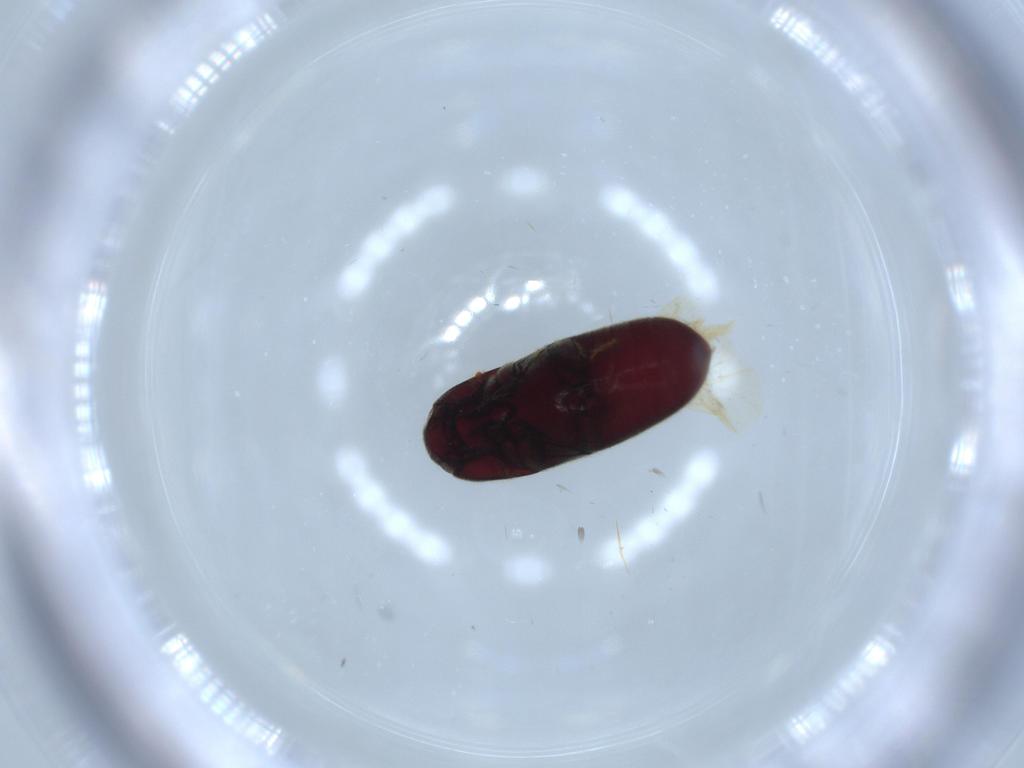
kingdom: Animalia
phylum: Arthropoda
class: Insecta
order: Coleoptera
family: Throscidae
